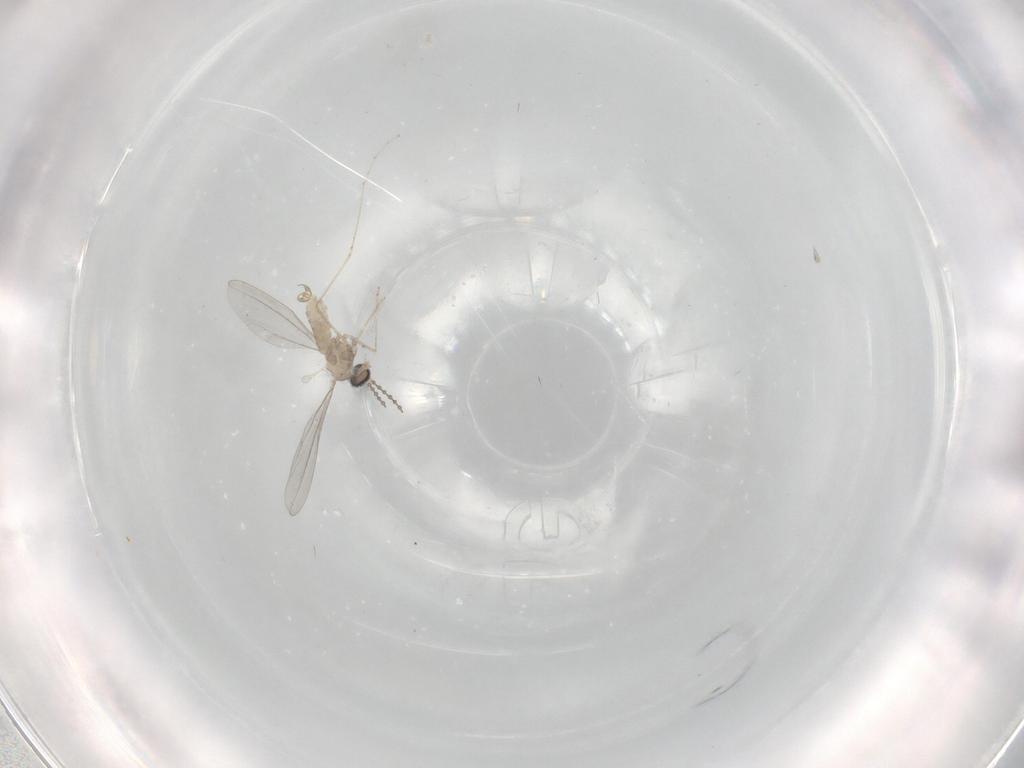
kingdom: Animalia
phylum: Arthropoda
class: Insecta
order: Diptera
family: Cecidomyiidae
